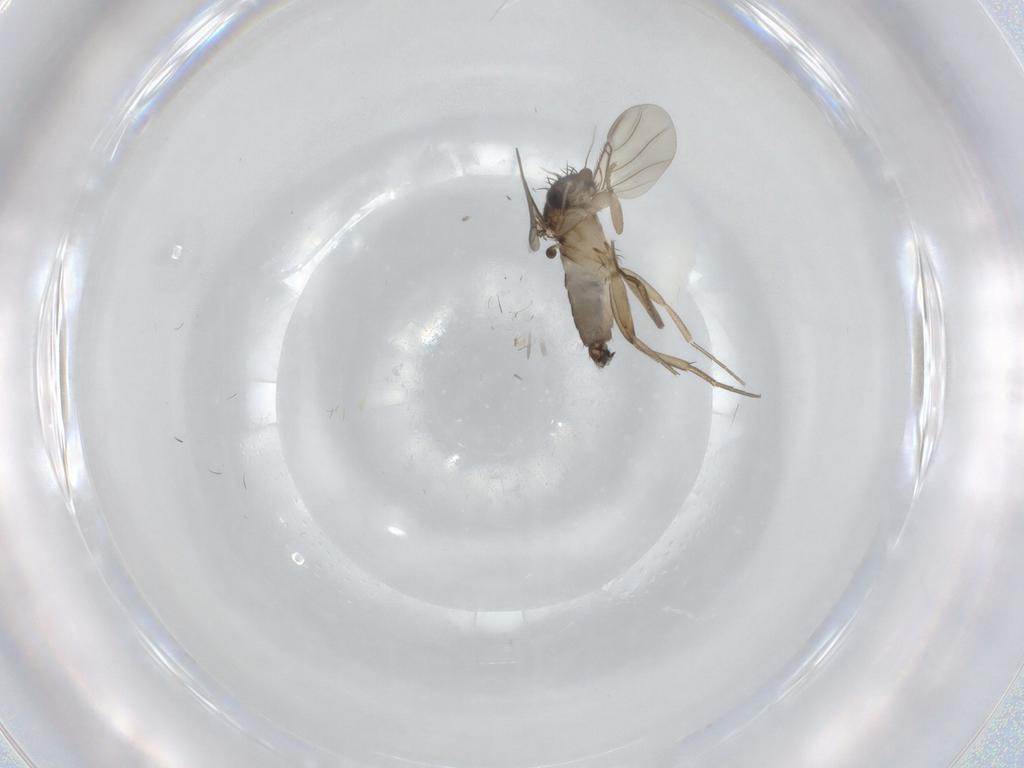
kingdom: Animalia
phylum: Arthropoda
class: Insecta
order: Diptera
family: Phoridae
